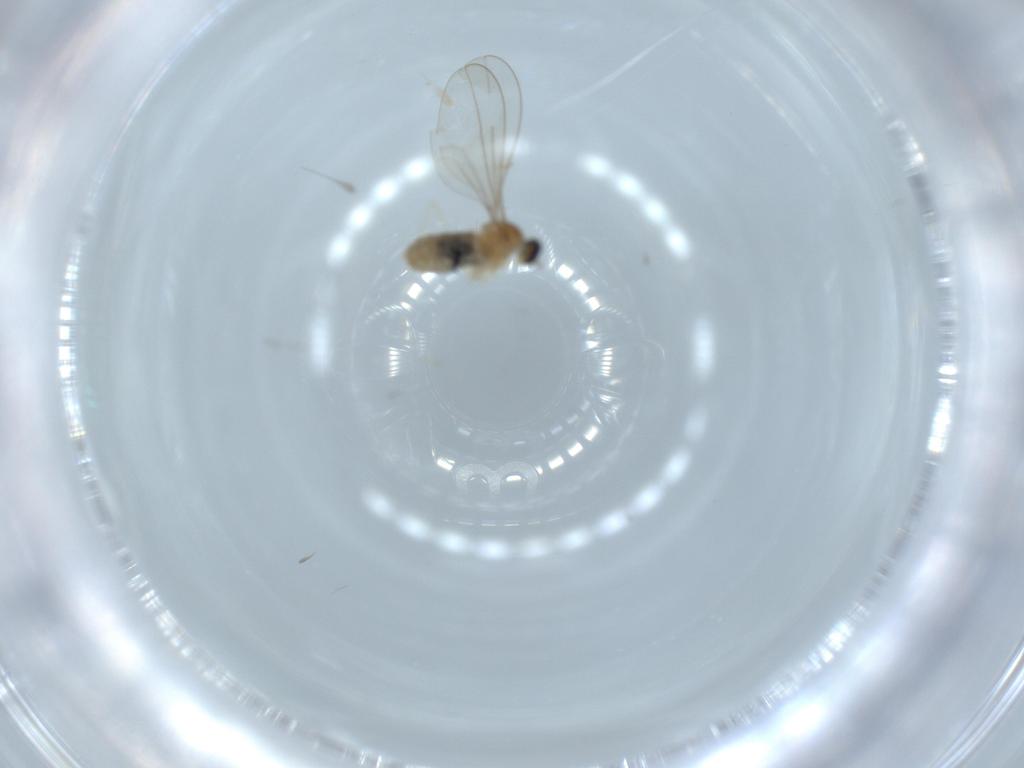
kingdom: Animalia
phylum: Arthropoda
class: Insecta
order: Diptera
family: Cecidomyiidae
